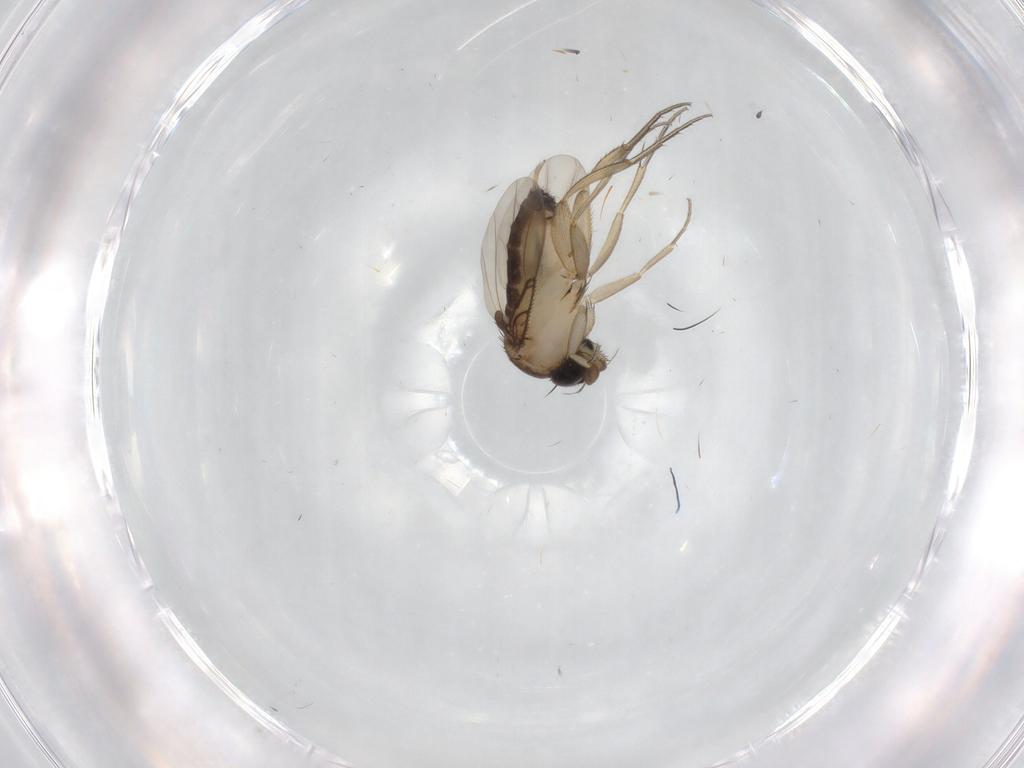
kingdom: Animalia
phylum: Arthropoda
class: Insecta
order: Diptera
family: Phoridae
